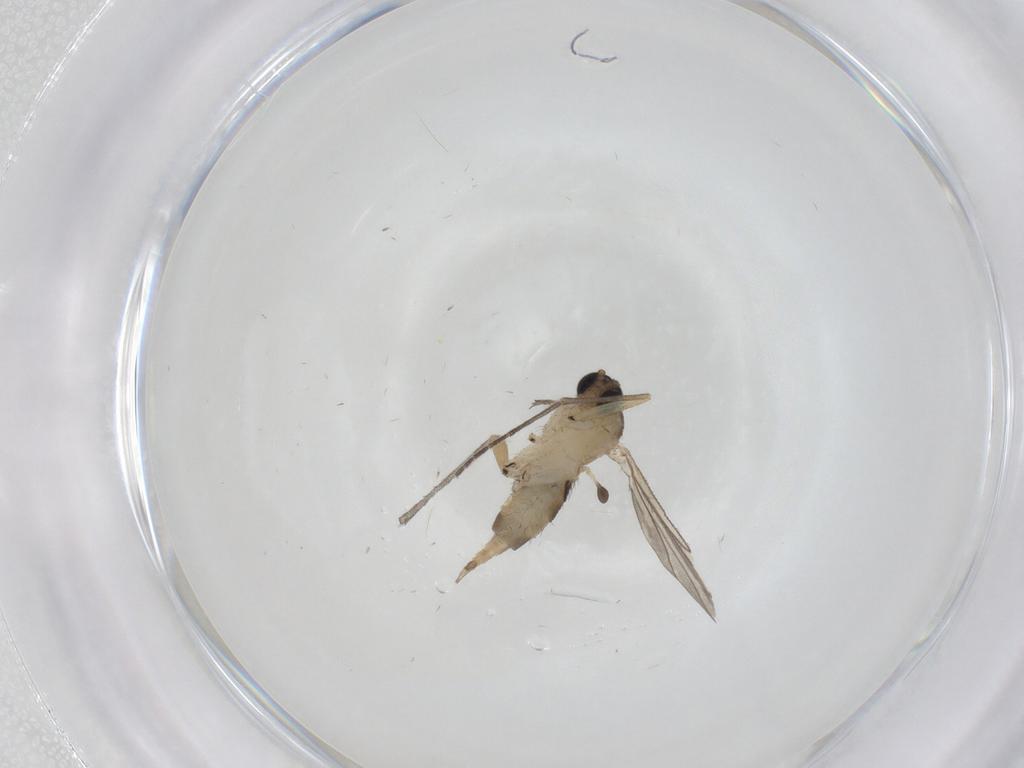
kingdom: Animalia
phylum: Arthropoda
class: Insecta
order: Diptera
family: Sciaridae
